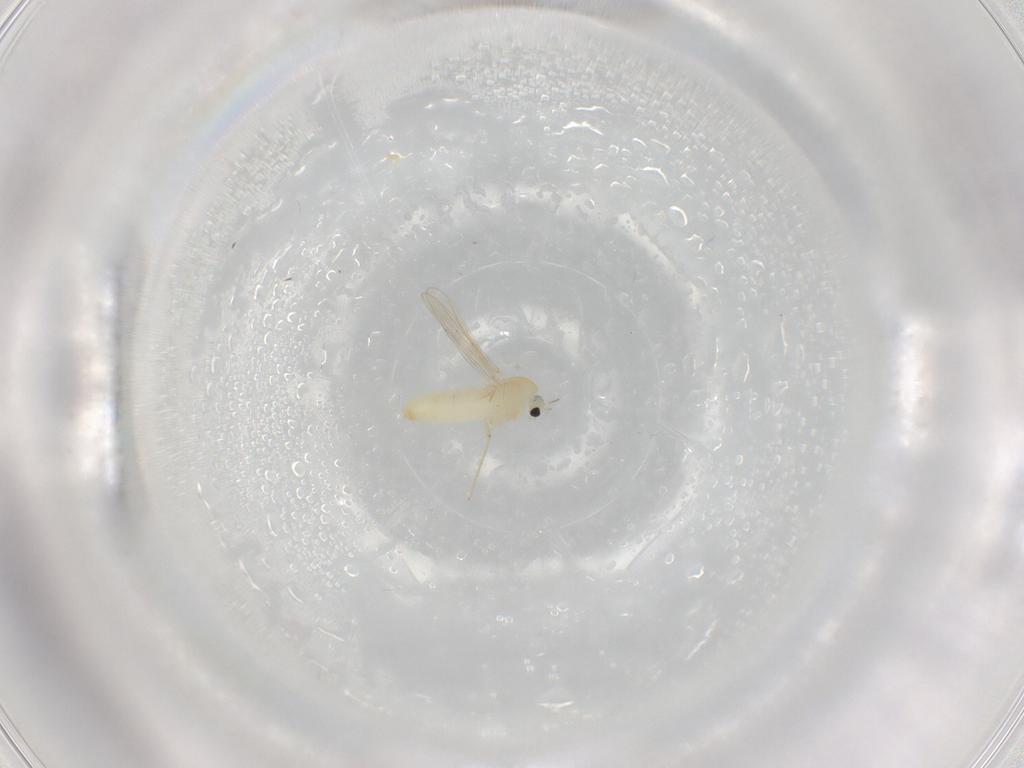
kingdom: Animalia
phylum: Arthropoda
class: Insecta
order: Diptera
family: Chironomidae
